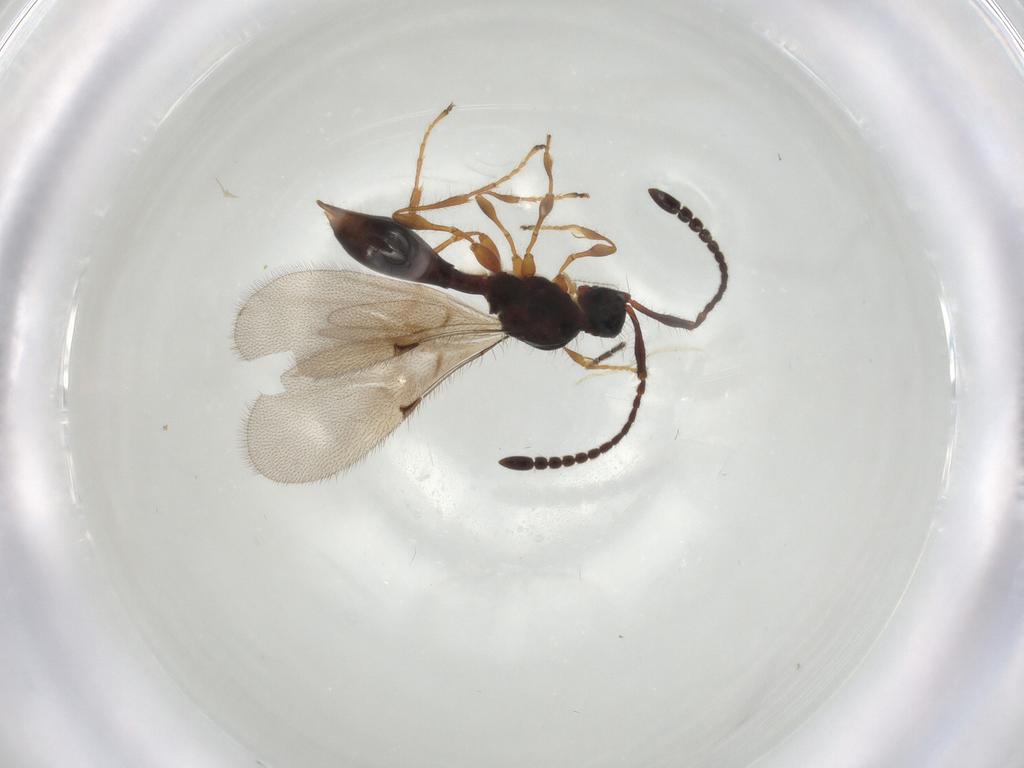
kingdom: Animalia
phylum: Arthropoda
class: Insecta
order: Hymenoptera
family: Diapriidae
